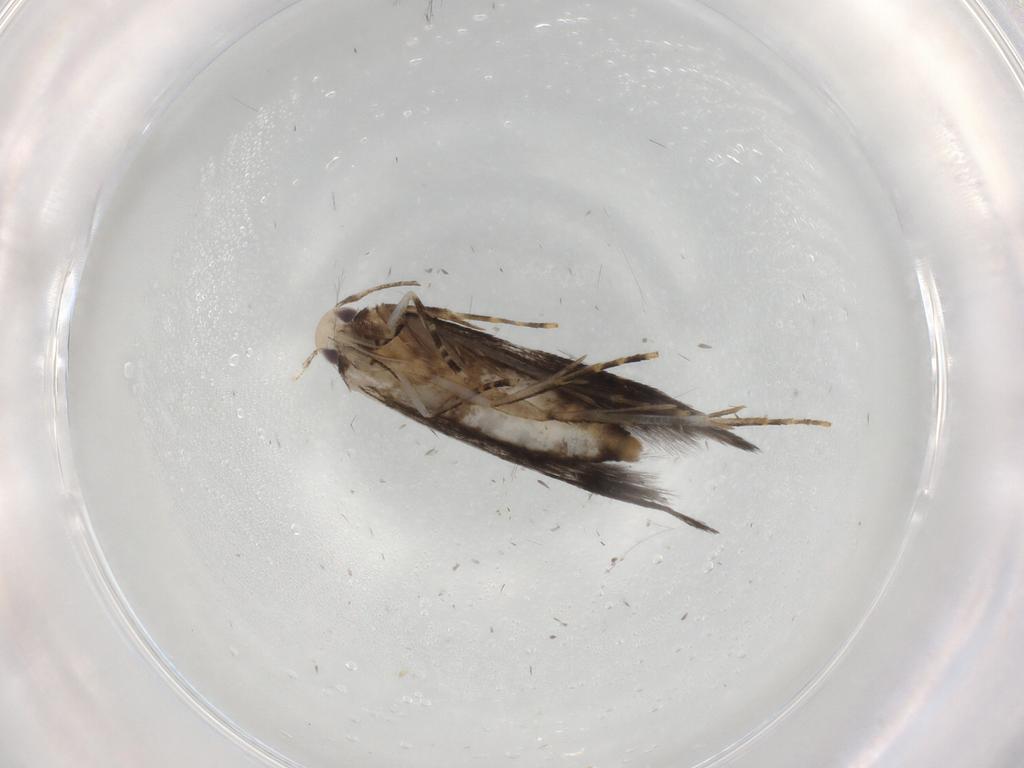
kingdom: Animalia
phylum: Arthropoda
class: Insecta
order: Lepidoptera
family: Cosmopterigidae
